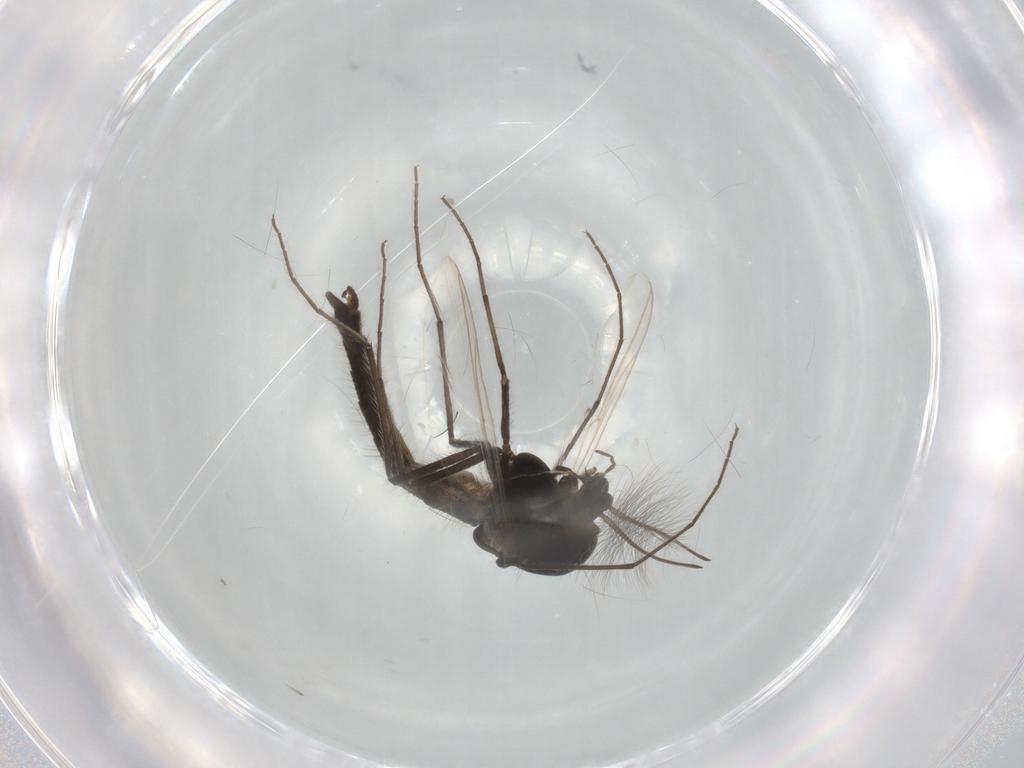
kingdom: Animalia
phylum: Arthropoda
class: Insecta
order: Diptera
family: Chironomidae
